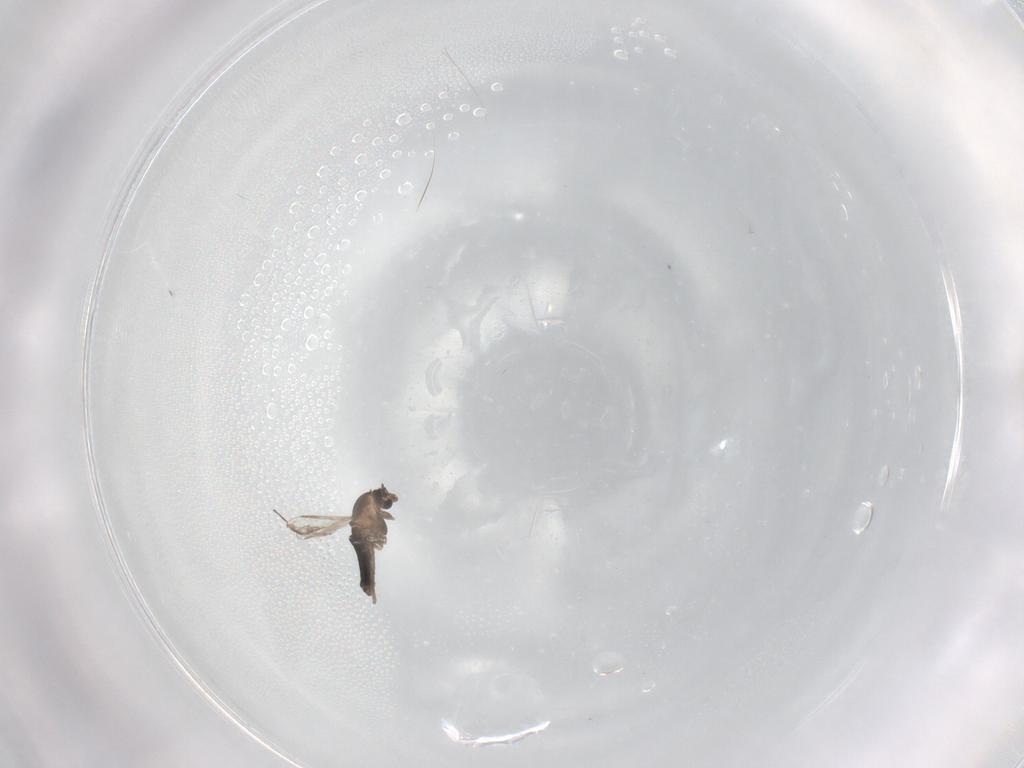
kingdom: Animalia
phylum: Arthropoda
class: Insecta
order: Diptera
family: Chironomidae
